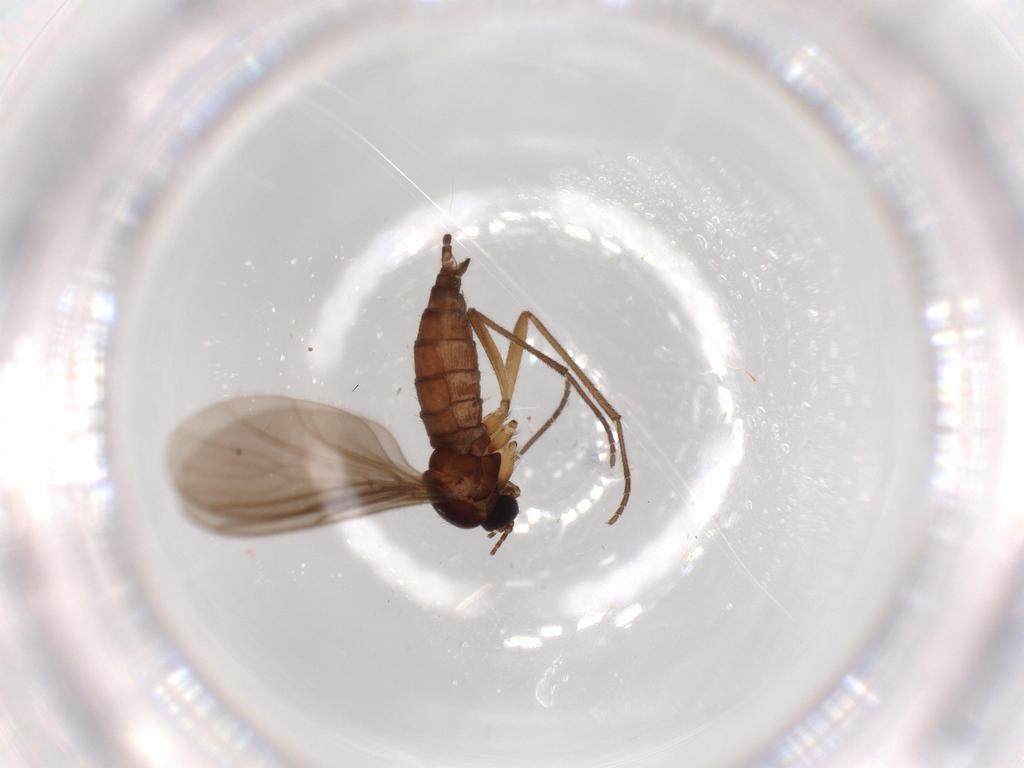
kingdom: Animalia
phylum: Arthropoda
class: Insecta
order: Diptera
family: Sciaridae
